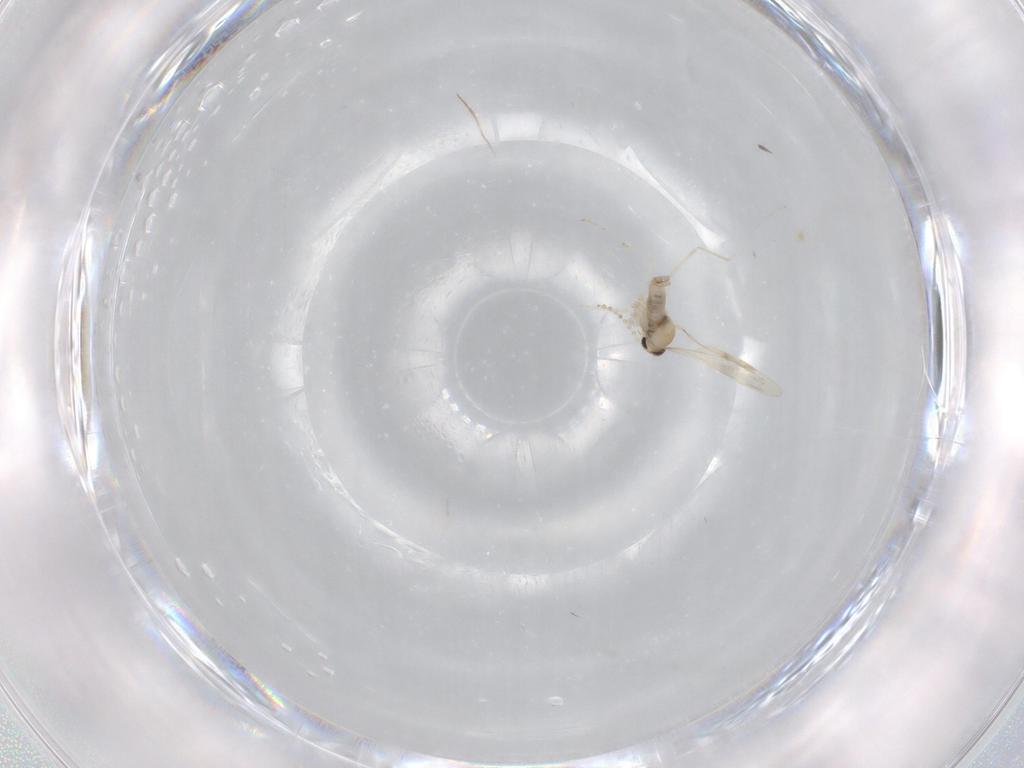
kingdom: Animalia
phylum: Arthropoda
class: Insecta
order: Diptera
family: Cecidomyiidae
